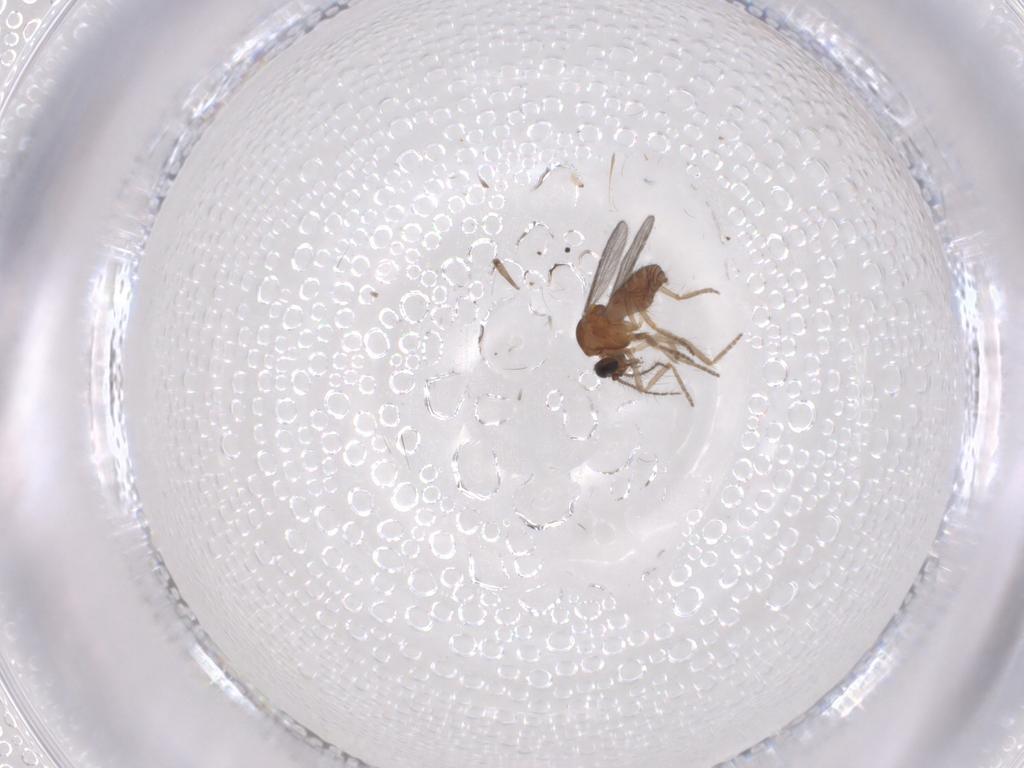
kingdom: Animalia
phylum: Arthropoda
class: Insecta
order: Diptera
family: Ceratopogonidae
